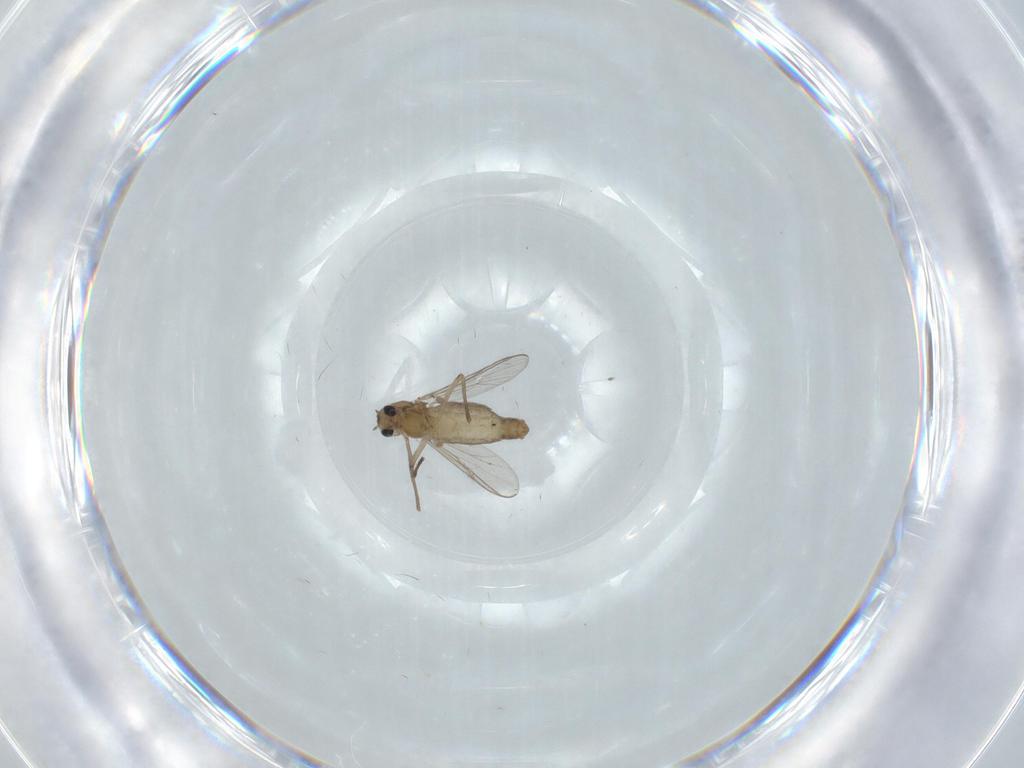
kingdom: Animalia
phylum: Arthropoda
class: Insecta
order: Diptera
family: Chironomidae
